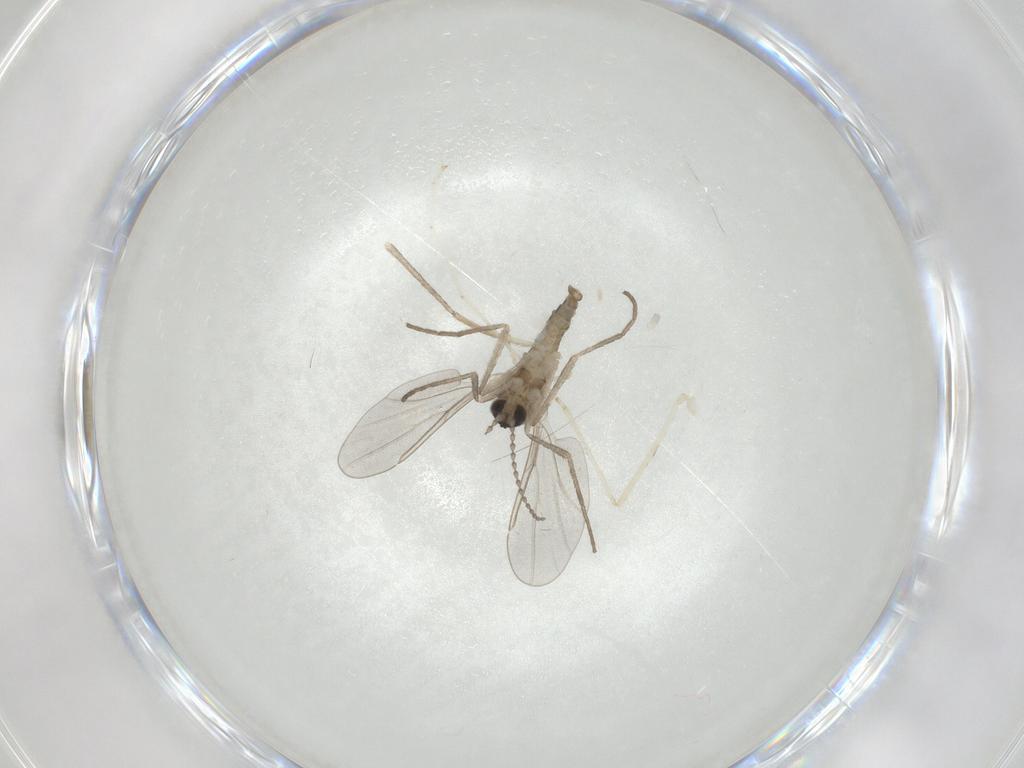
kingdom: Animalia
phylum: Arthropoda
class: Insecta
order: Diptera
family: Cecidomyiidae
